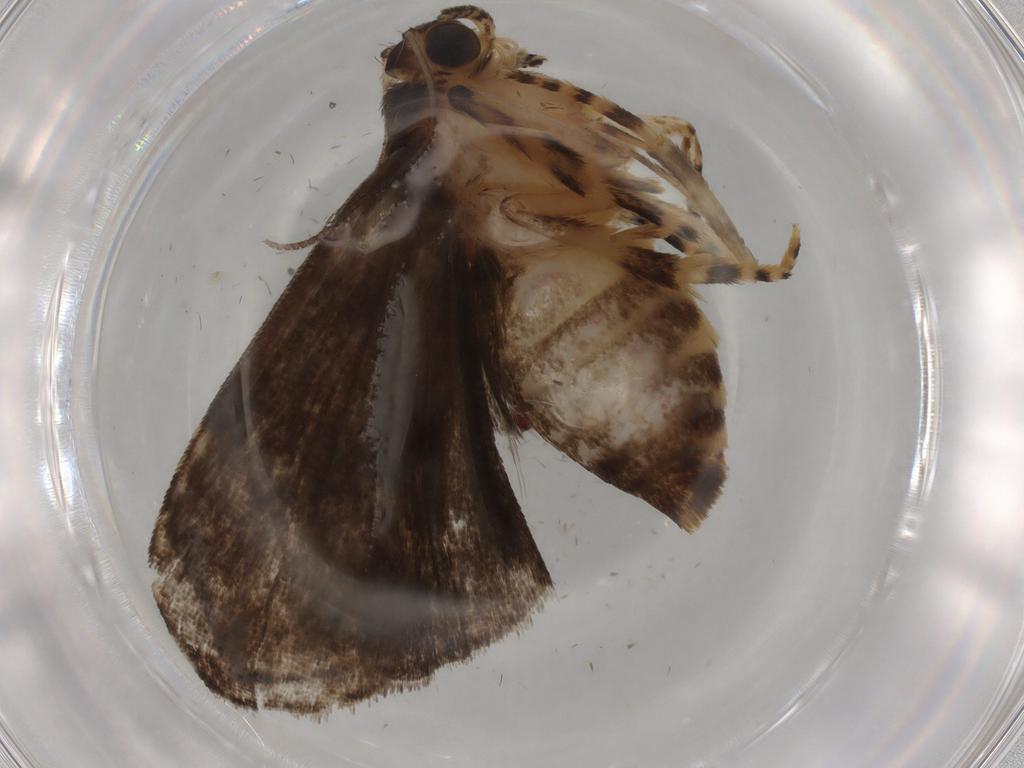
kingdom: Animalia
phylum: Arthropoda
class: Insecta
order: Lepidoptera
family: Immidae
